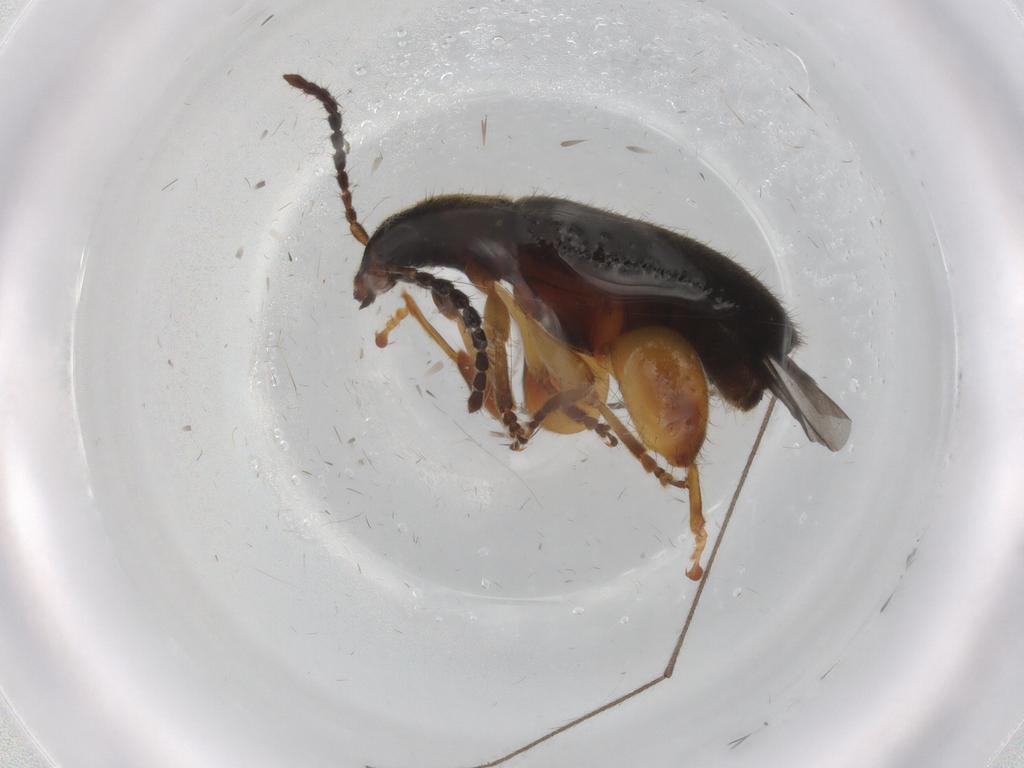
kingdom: Animalia
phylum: Arthropoda
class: Insecta
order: Coleoptera
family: Chrysomelidae
